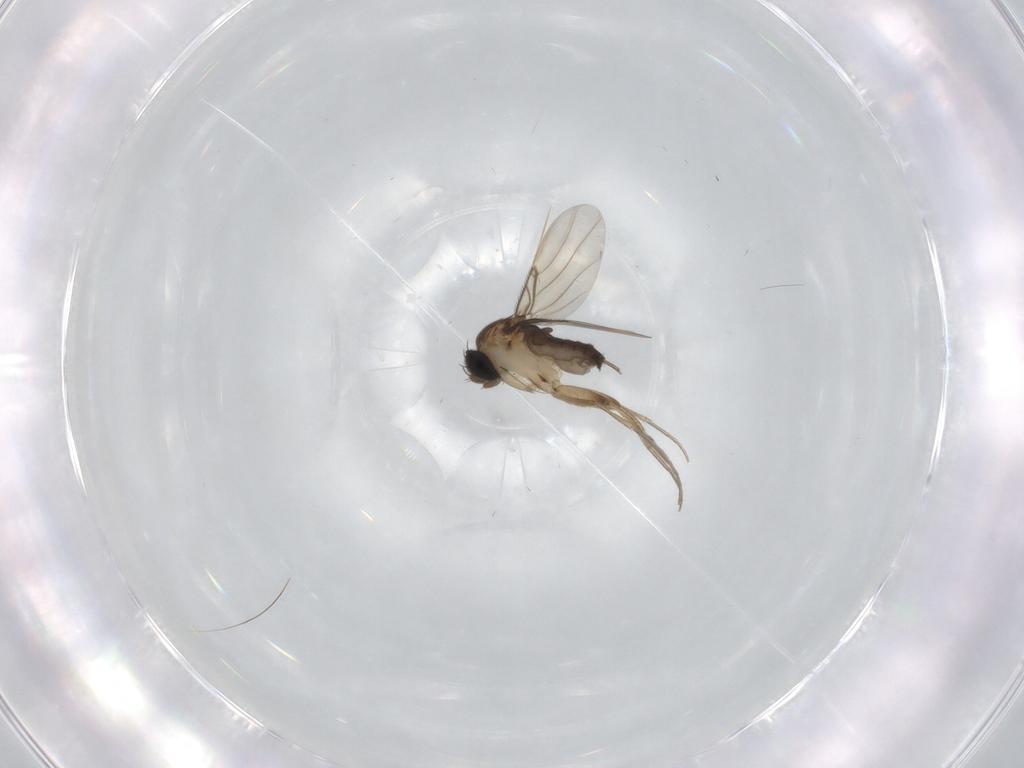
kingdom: Animalia
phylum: Arthropoda
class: Insecta
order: Diptera
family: Phoridae
